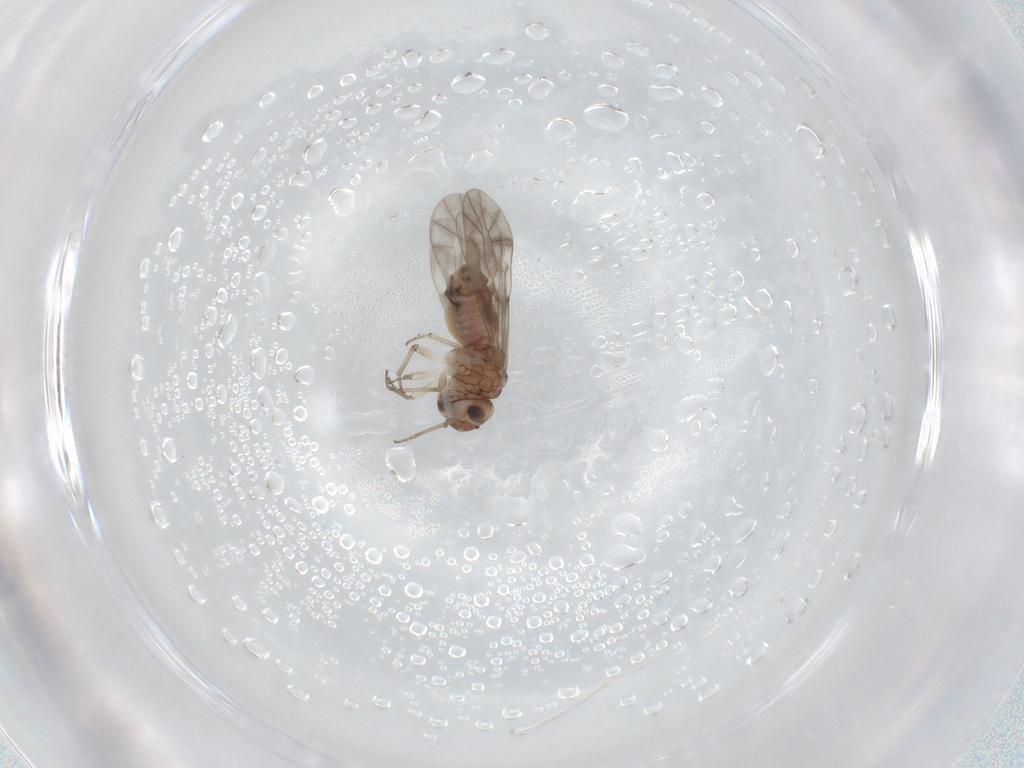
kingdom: Animalia
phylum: Arthropoda
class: Insecta
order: Psocodea
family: Peripsocidae
